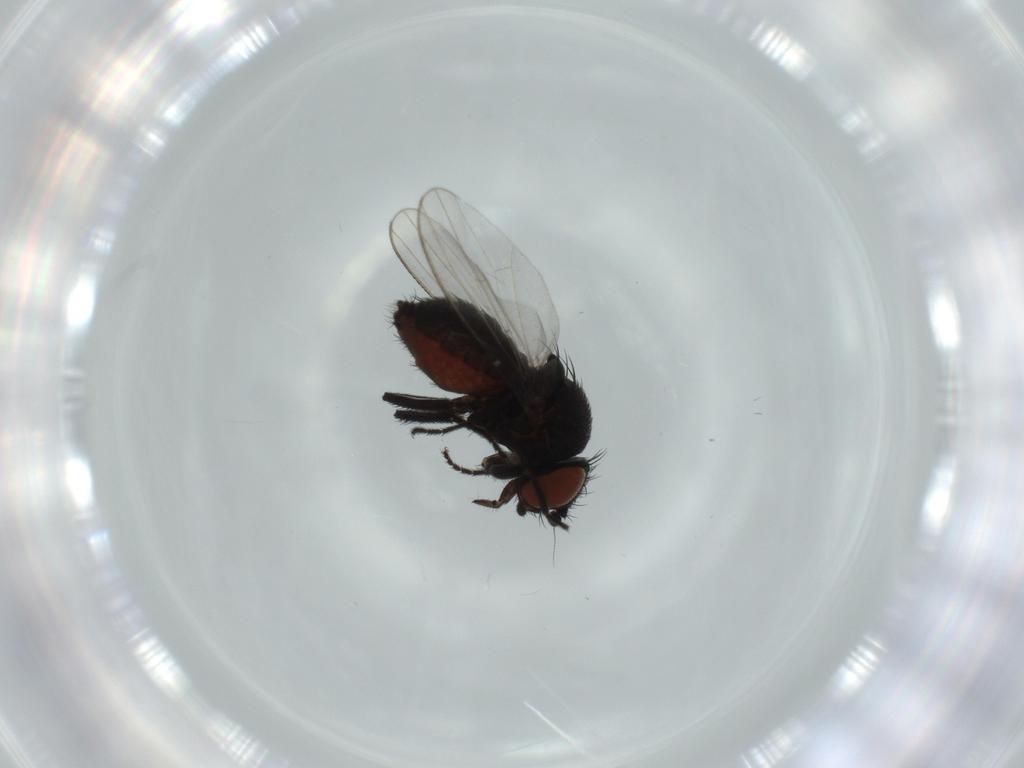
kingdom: Animalia
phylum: Arthropoda
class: Insecta
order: Diptera
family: Milichiidae
